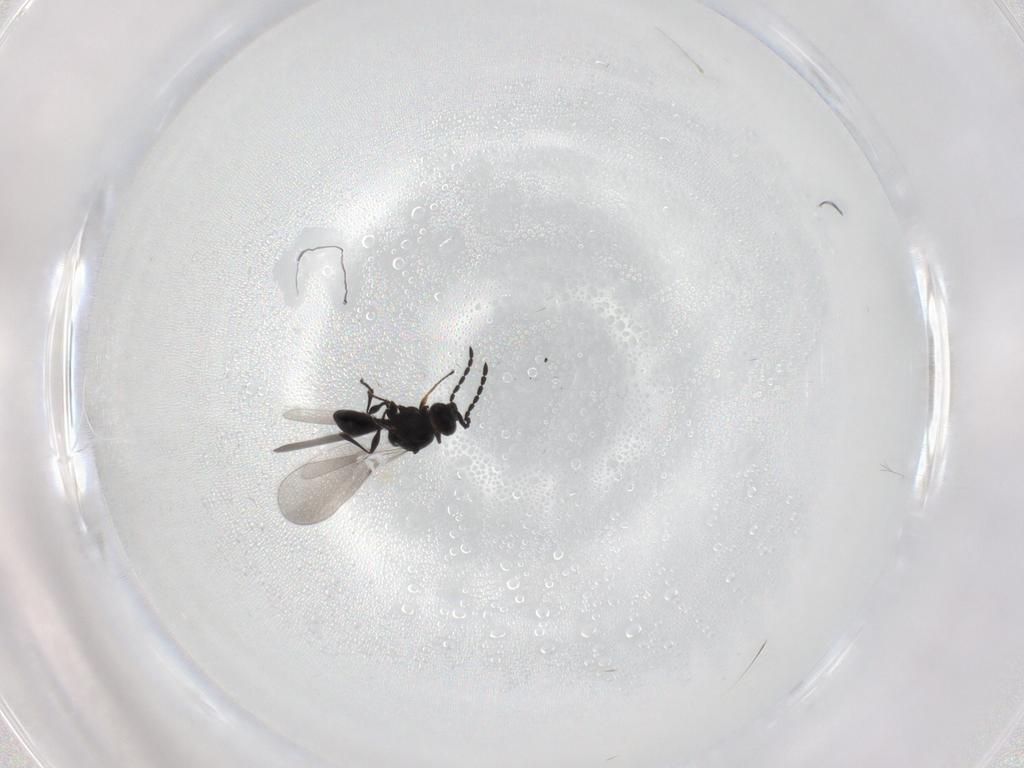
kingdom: Animalia
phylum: Arthropoda
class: Insecta
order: Hymenoptera
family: Platygastridae
